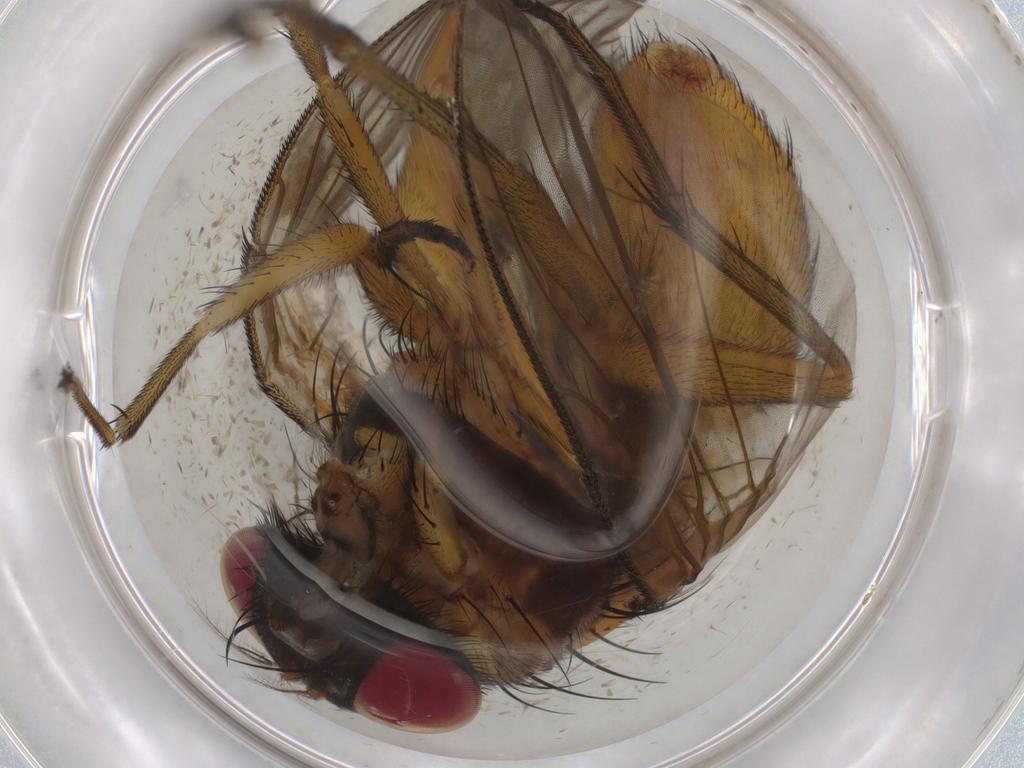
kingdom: Animalia
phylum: Arthropoda
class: Insecta
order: Diptera
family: Muscidae
